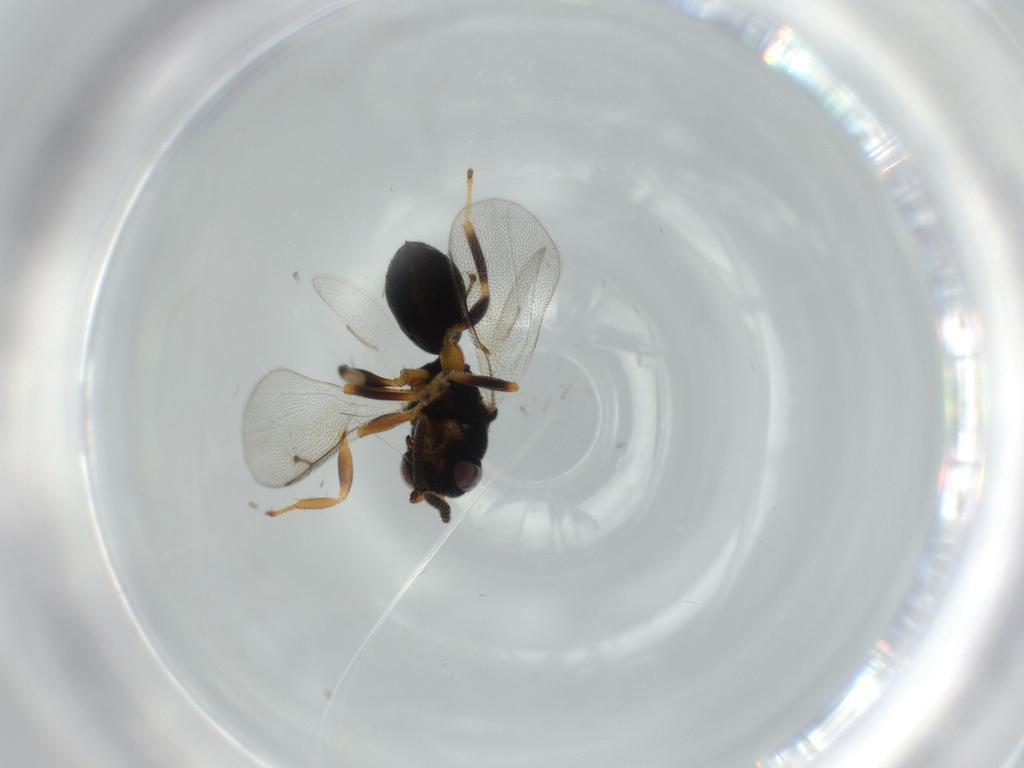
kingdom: Animalia
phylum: Arthropoda
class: Insecta
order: Hymenoptera
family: Eurytomidae
